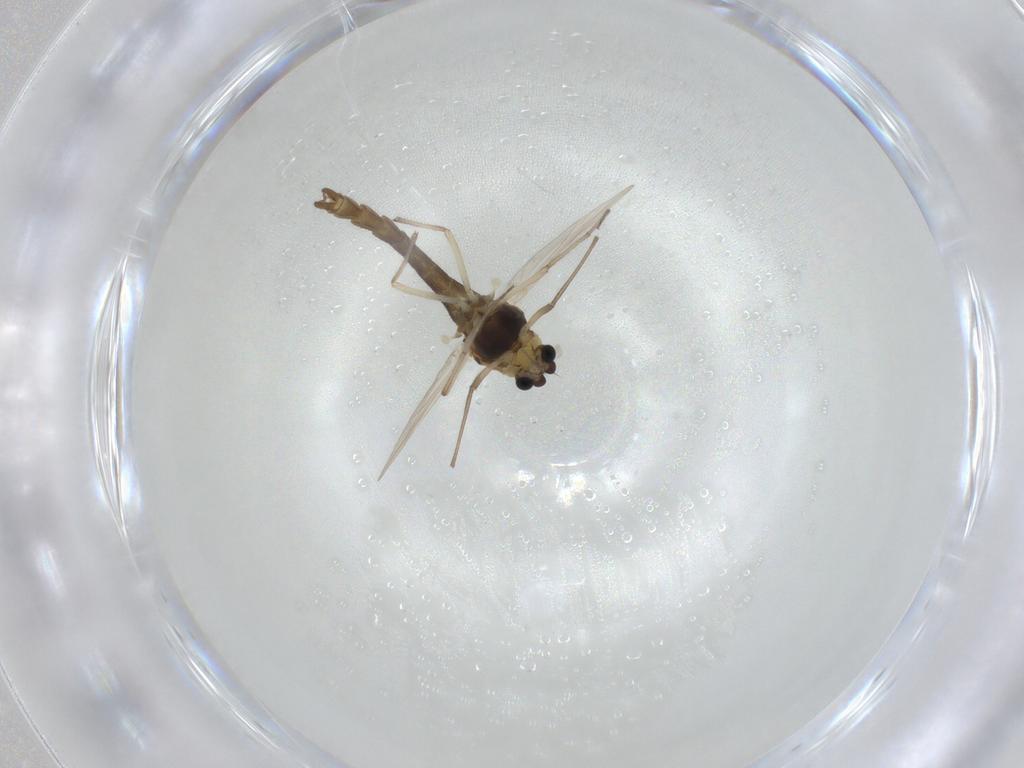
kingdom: Animalia
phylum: Arthropoda
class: Insecta
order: Diptera
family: Chironomidae
